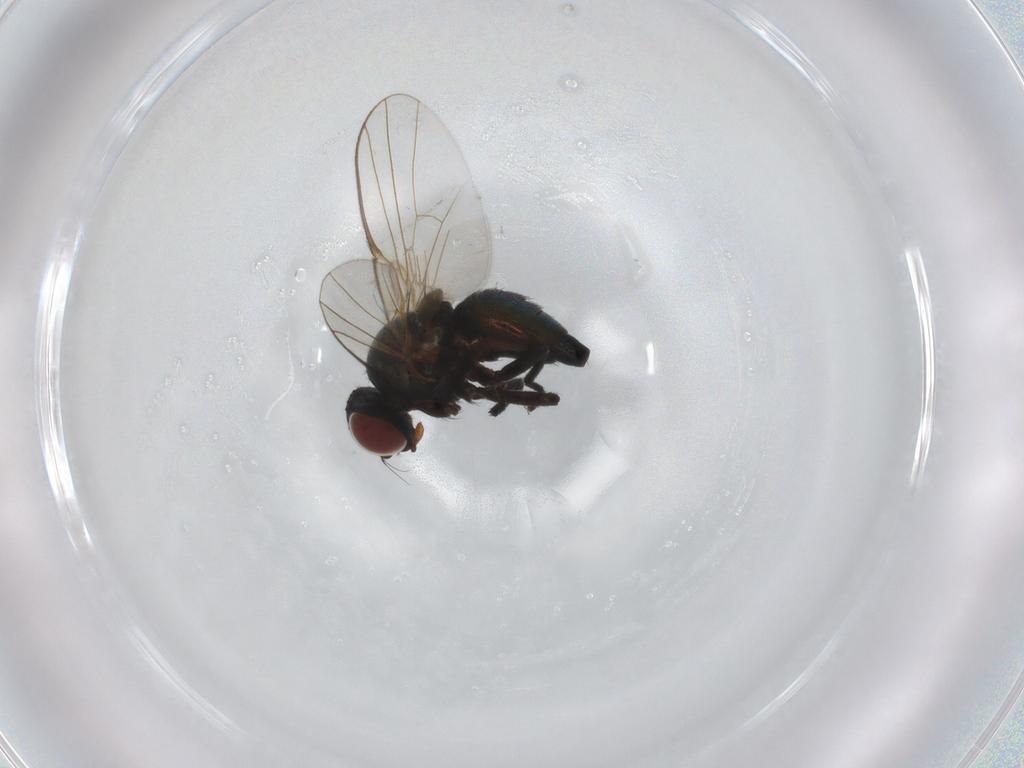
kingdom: Animalia
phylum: Arthropoda
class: Insecta
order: Diptera
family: Agromyzidae
